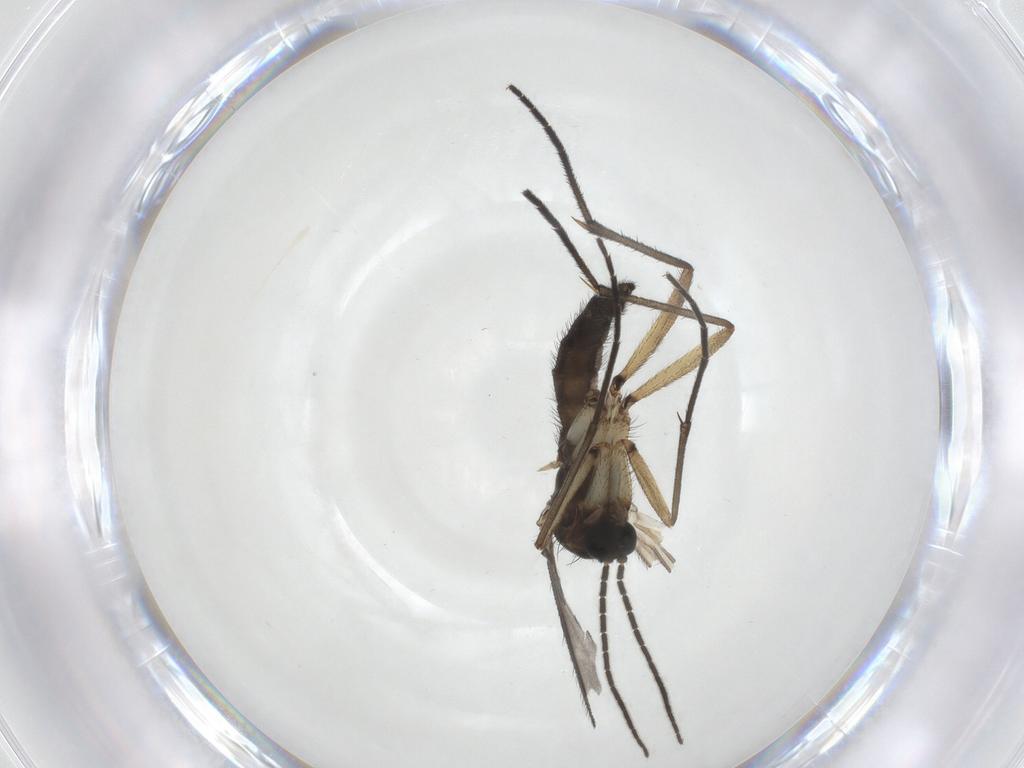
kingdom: Animalia
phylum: Arthropoda
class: Insecta
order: Diptera
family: Sciaridae
